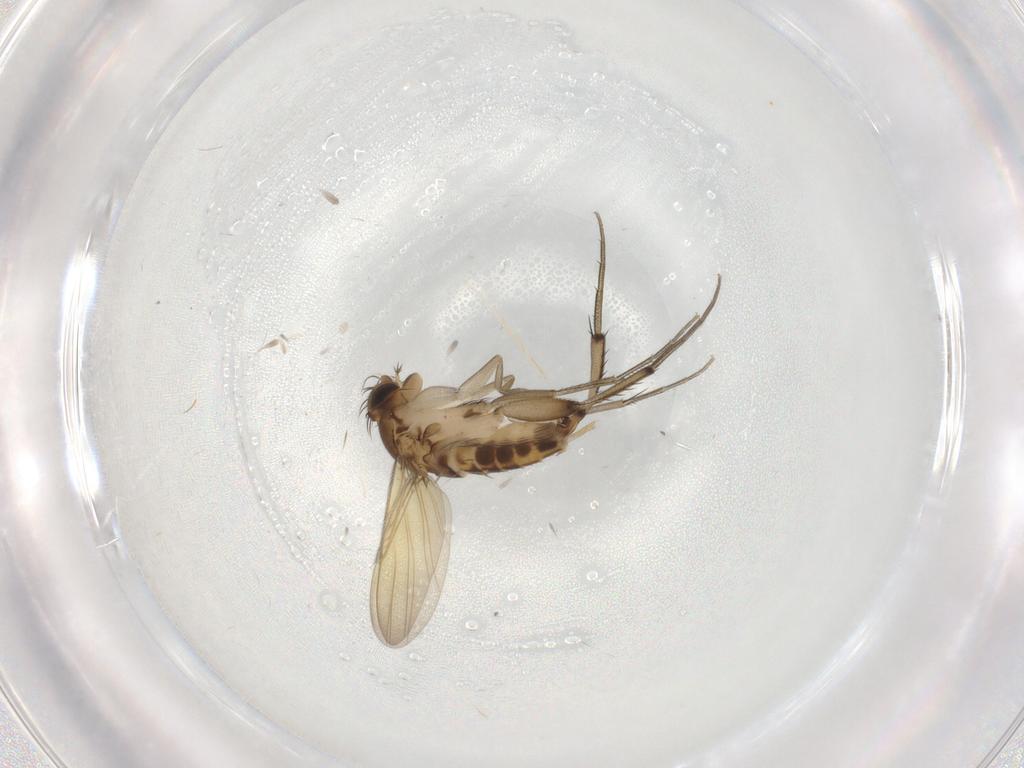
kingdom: Animalia
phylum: Arthropoda
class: Insecta
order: Diptera
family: Phoridae
